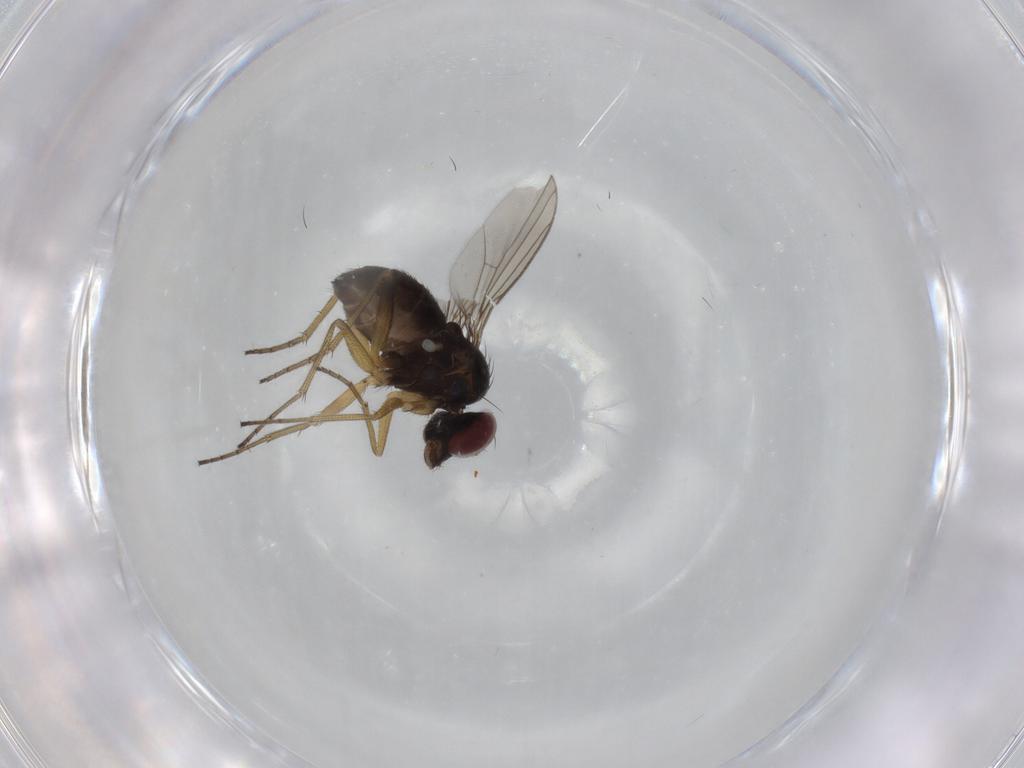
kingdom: Animalia
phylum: Arthropoda
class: Insecta
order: Diptera
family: Dolichopodidae
